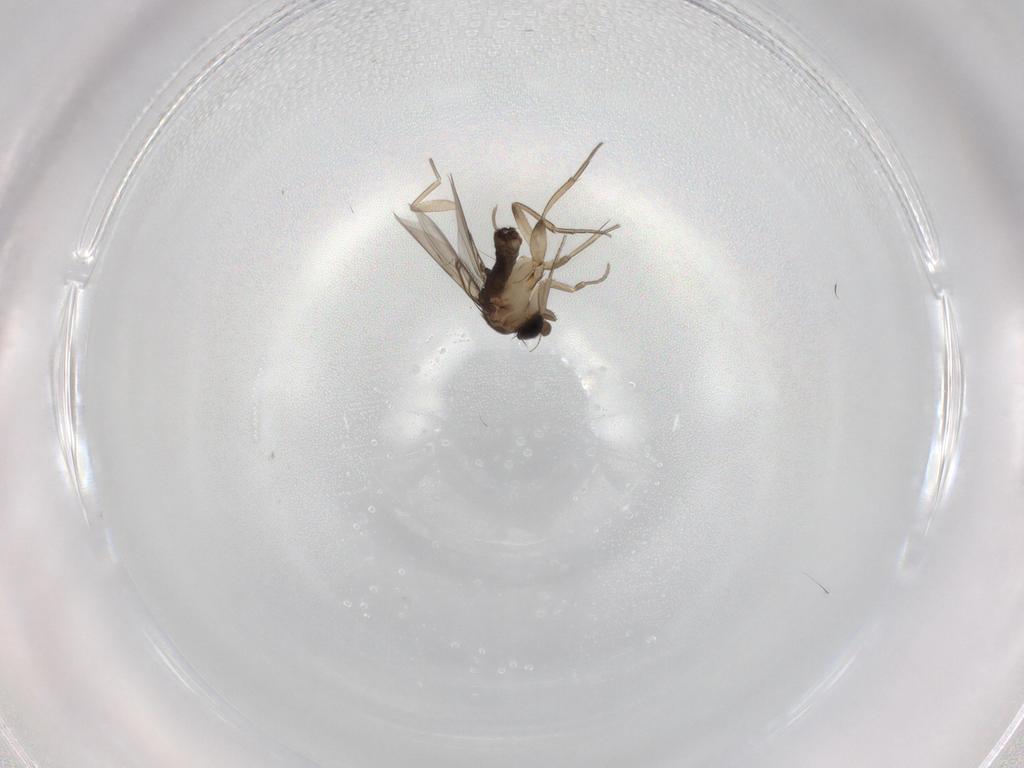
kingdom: Animalia
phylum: Arthropoda
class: Insecta
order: Diptera
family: Phoridae
